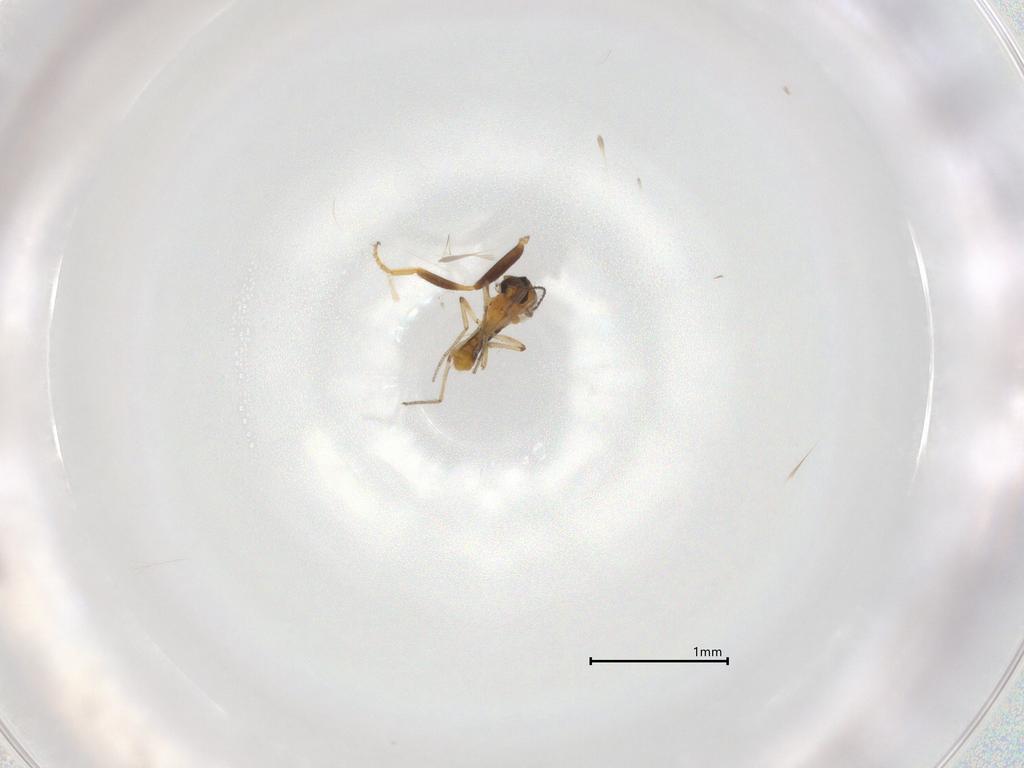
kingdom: Animalia
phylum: Arthropoda
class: Insecta
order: Diptera
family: Ceratopogonidae
